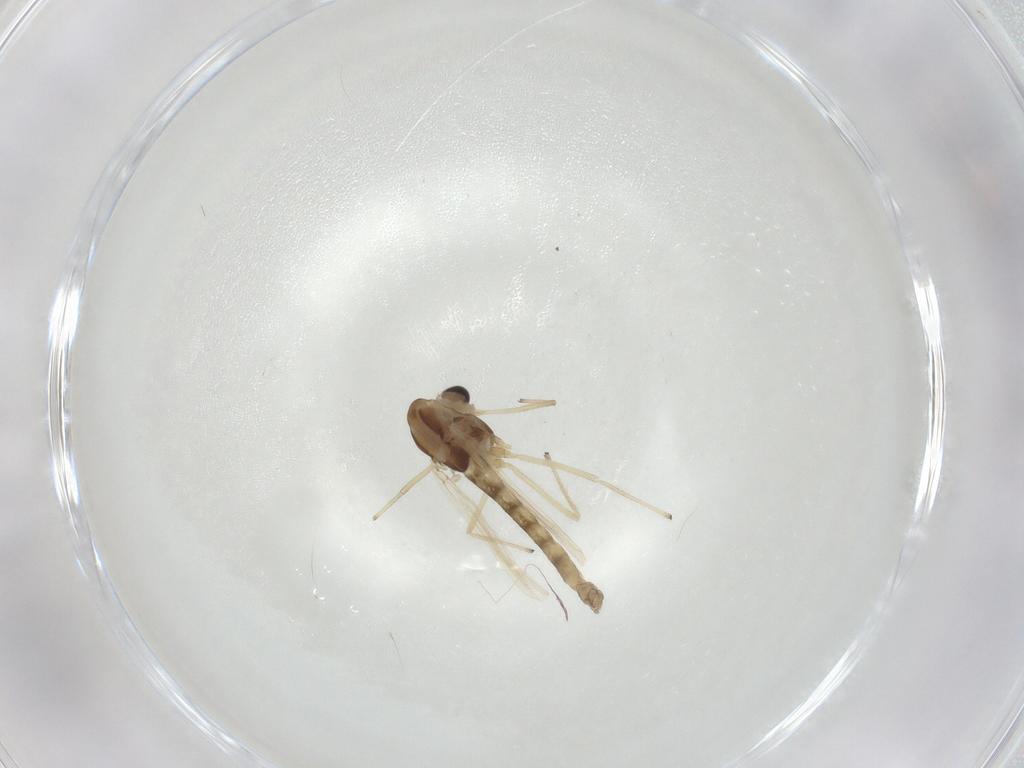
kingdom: Animalia
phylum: Arthropoda
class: Insecta
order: Diptera
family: Chironomidae
